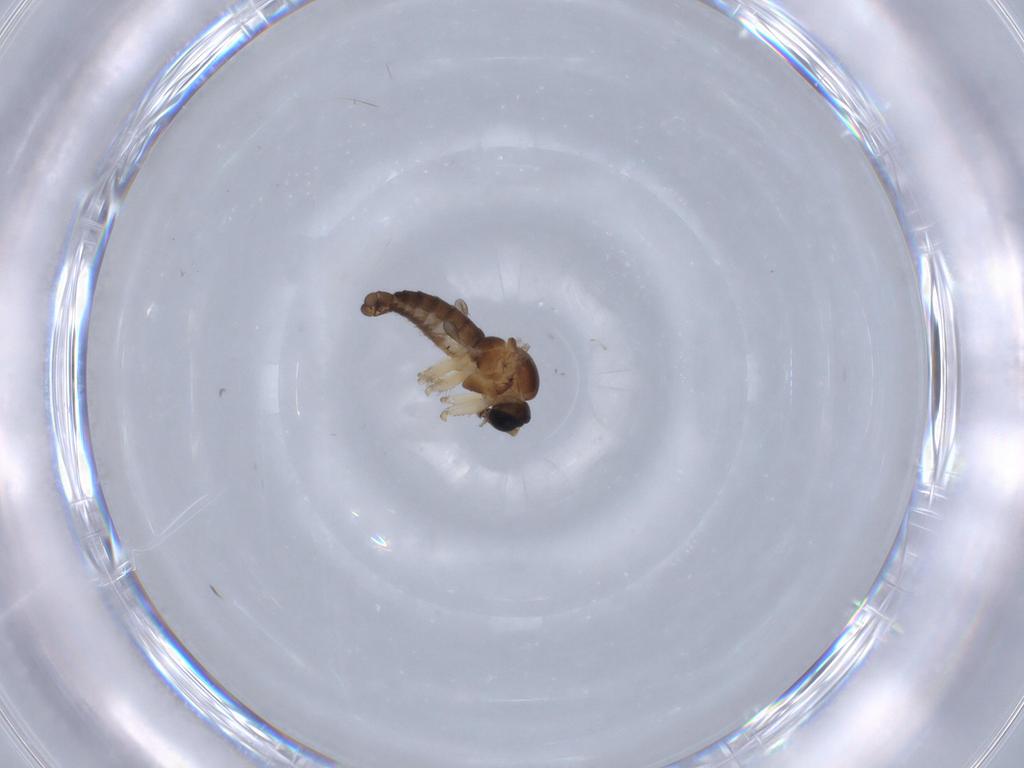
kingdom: Animalia
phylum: Arthropoda
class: Insecta
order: Diptera
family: Sciaridae
